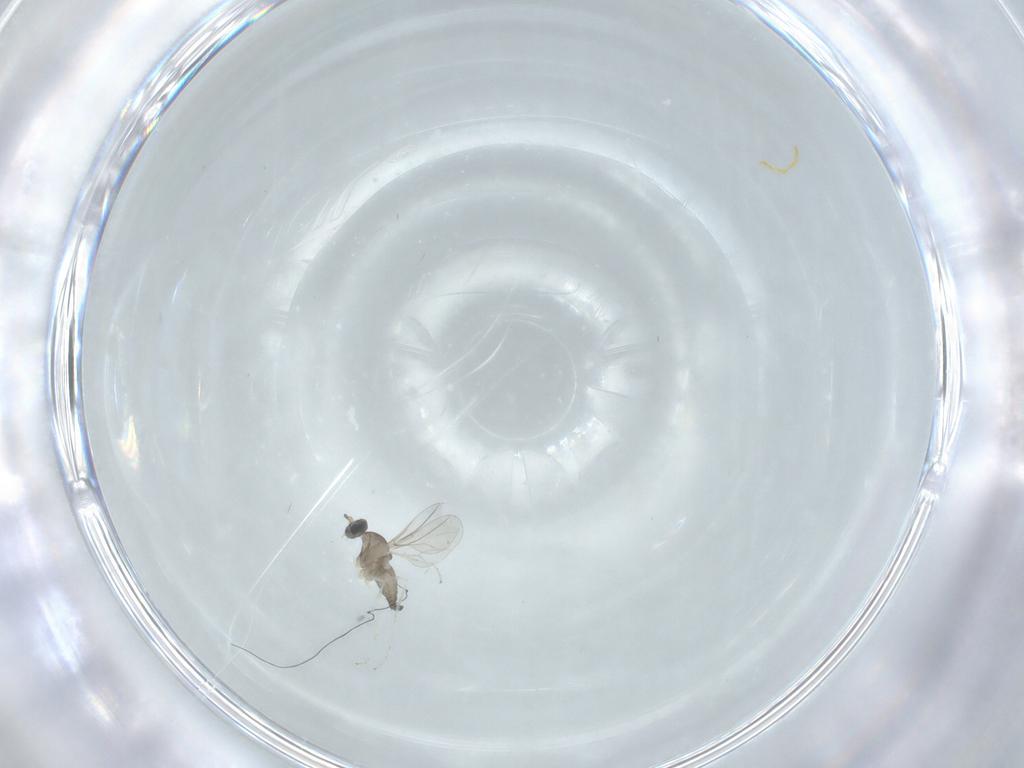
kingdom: Animalia
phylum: Arthropoda
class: Insecta
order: Diptera
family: Cecidomyiidae
